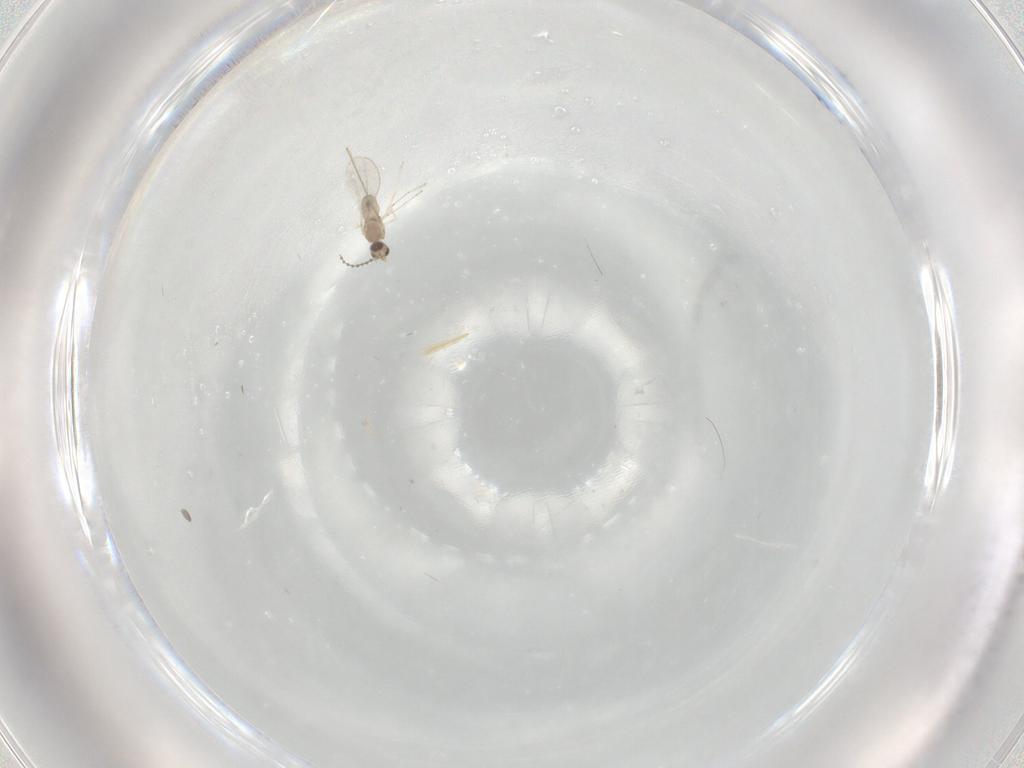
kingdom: Animalia
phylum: Arthropoda
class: Insecta
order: Diptera
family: Cecidomyiidae
